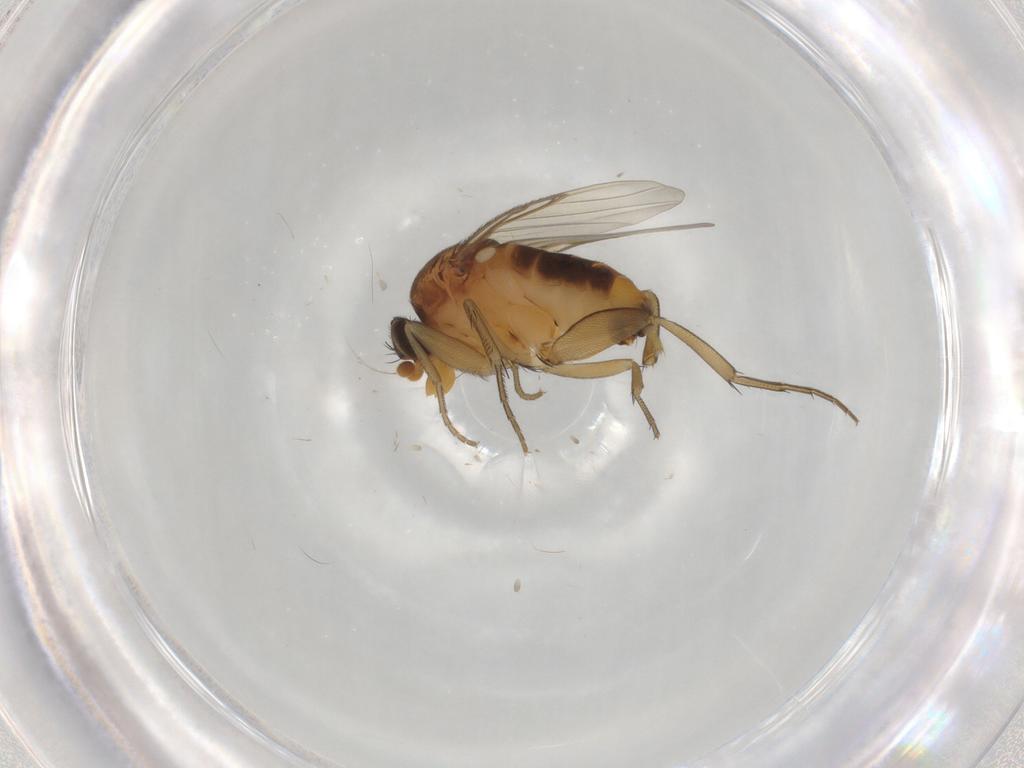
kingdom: Animalia
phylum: Arthropoda
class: Insecta
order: Diptera
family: Phoridae
